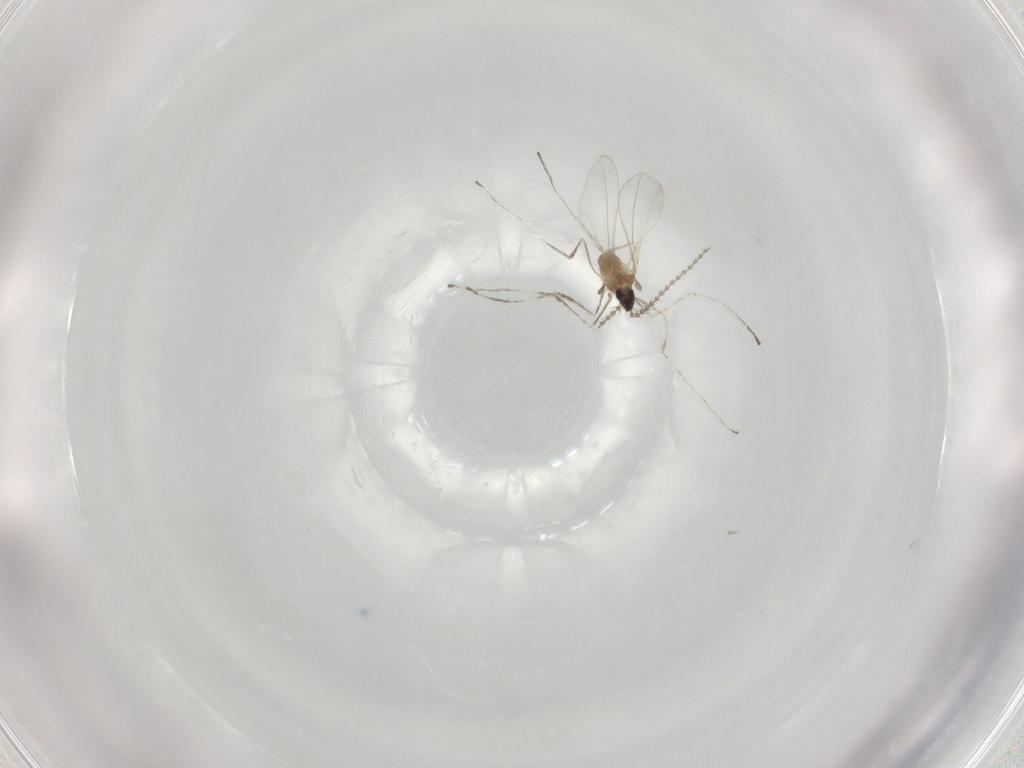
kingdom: Animalia
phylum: Arthropoda
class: Insecta
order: Diptera
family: Cecidomyiidae
